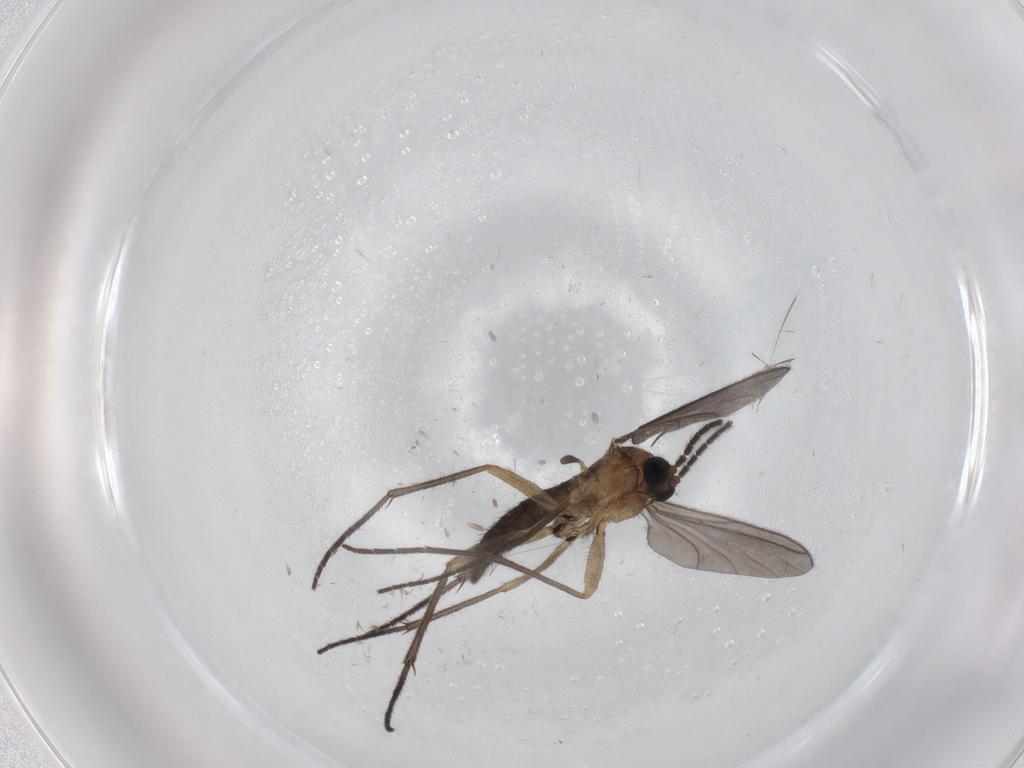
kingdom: Animalia
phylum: Arthropoda
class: Insecta
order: Diptera
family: Sciaridae
